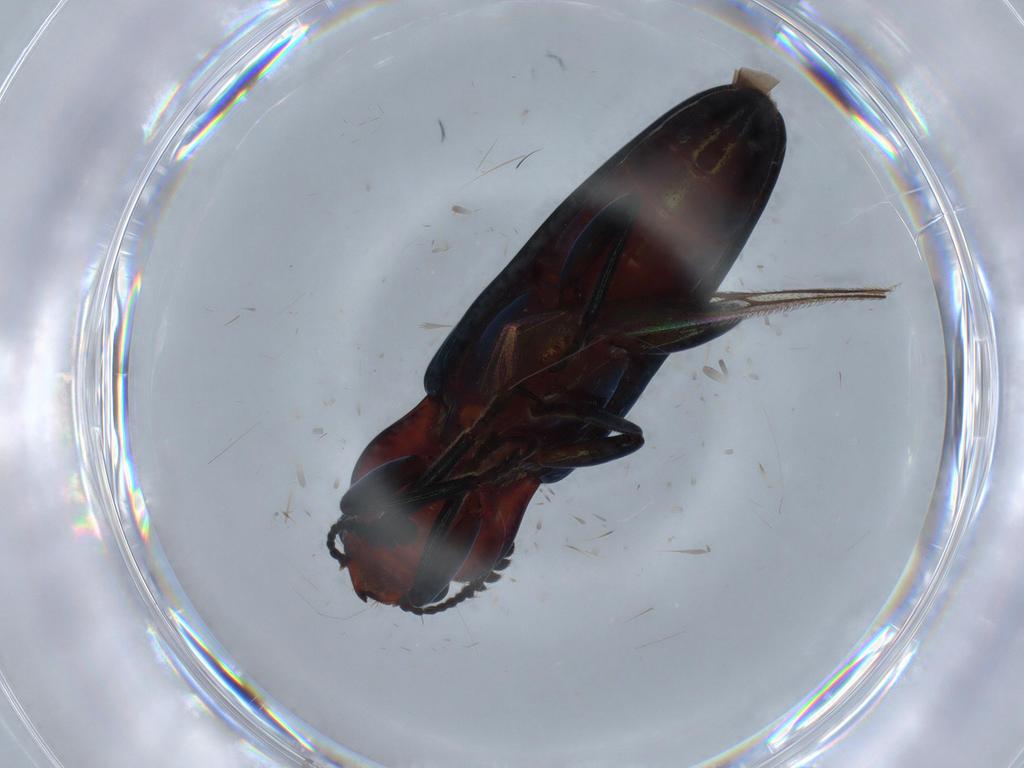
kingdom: Animalia
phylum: Arthropoda
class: Insecta
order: Coleoptera
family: Erotylidae
